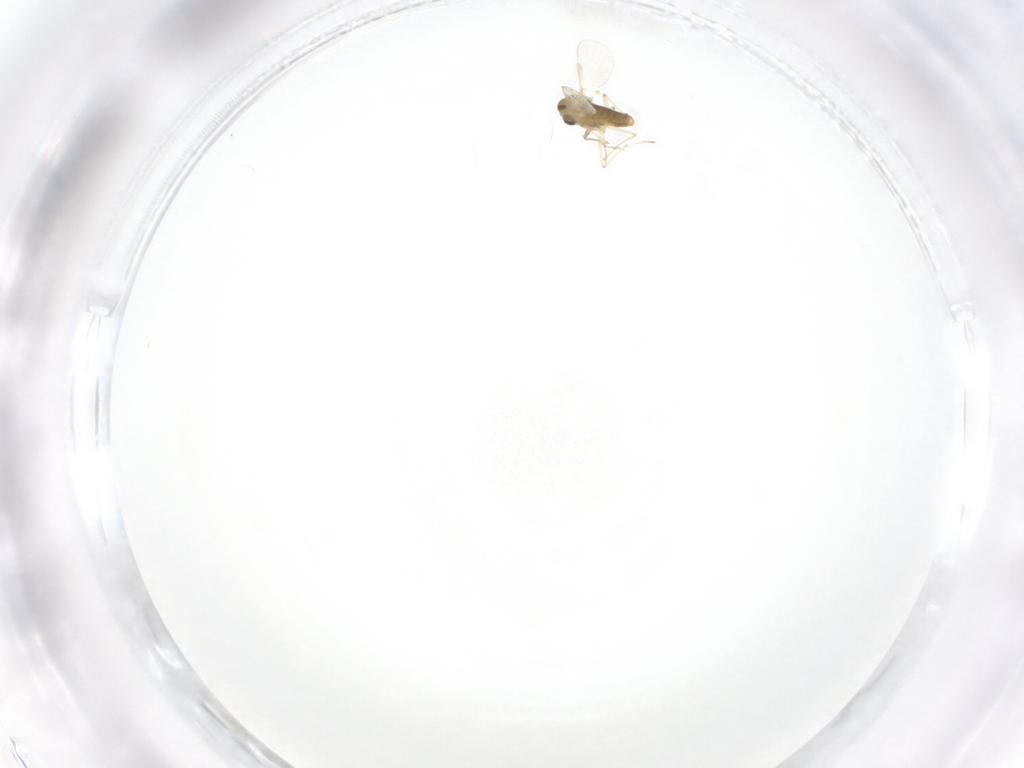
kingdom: Animalia
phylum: Arthropoda
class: Insecta
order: Diptera
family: Chironomidae
